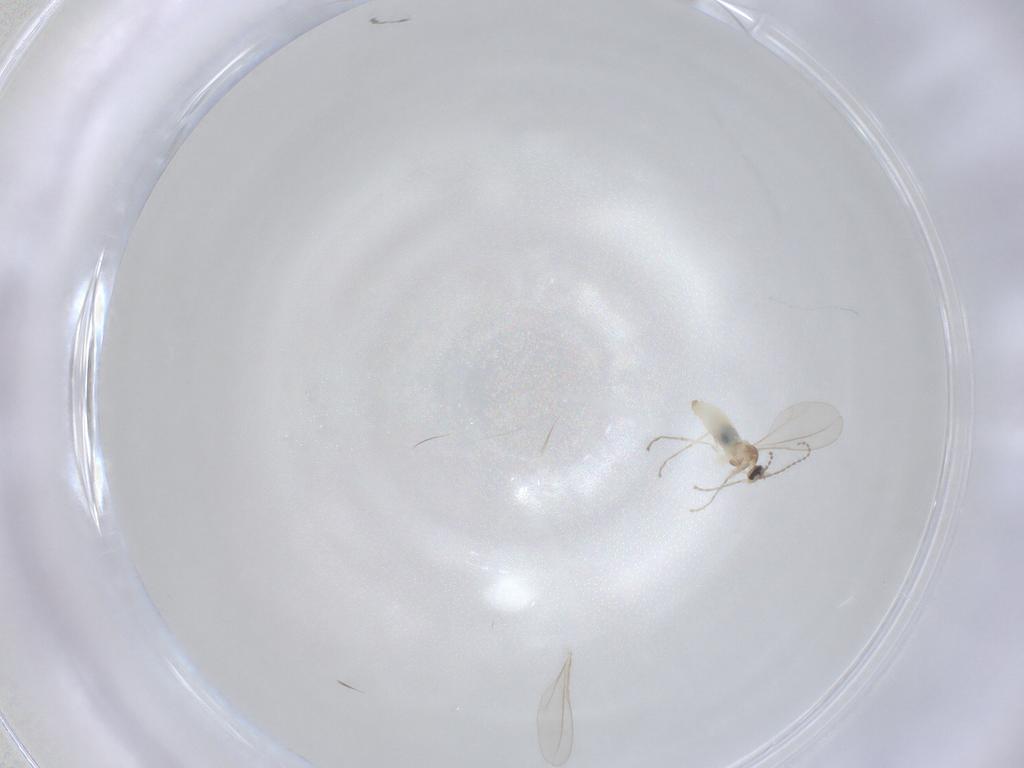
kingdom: Animalia
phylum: Arthropoda
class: Insecta
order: Diptera
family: Cecidomyiidae
